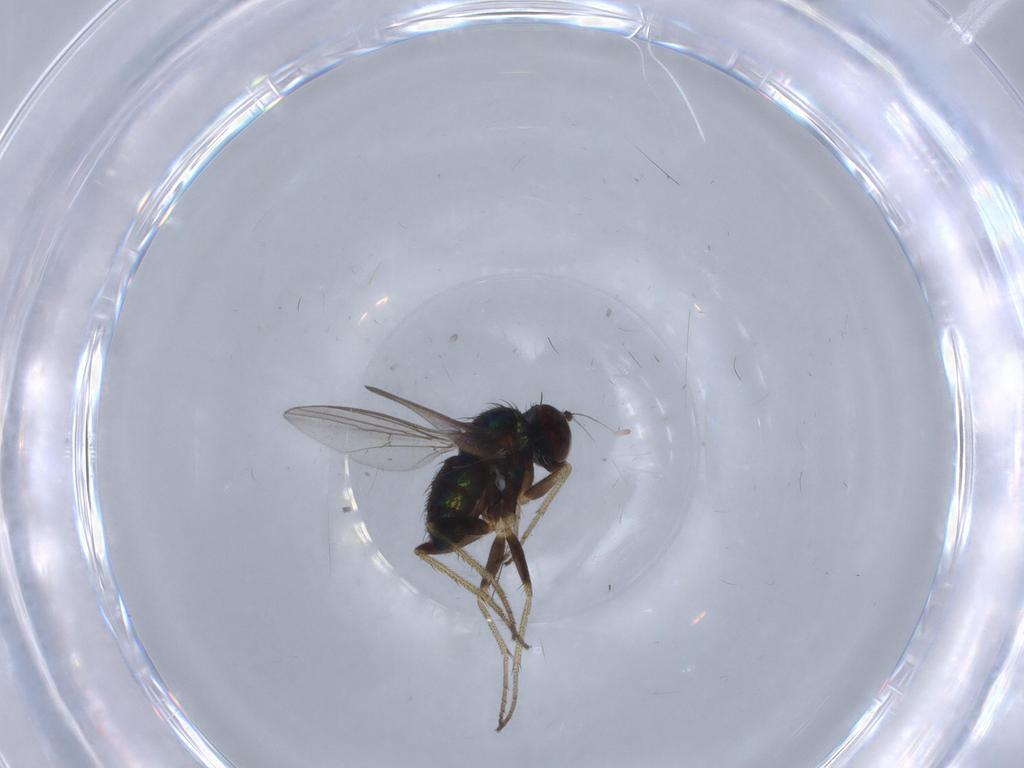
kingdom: Animalia
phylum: Arthropoda
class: Insecta
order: Diptera
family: Dolichopodidae
